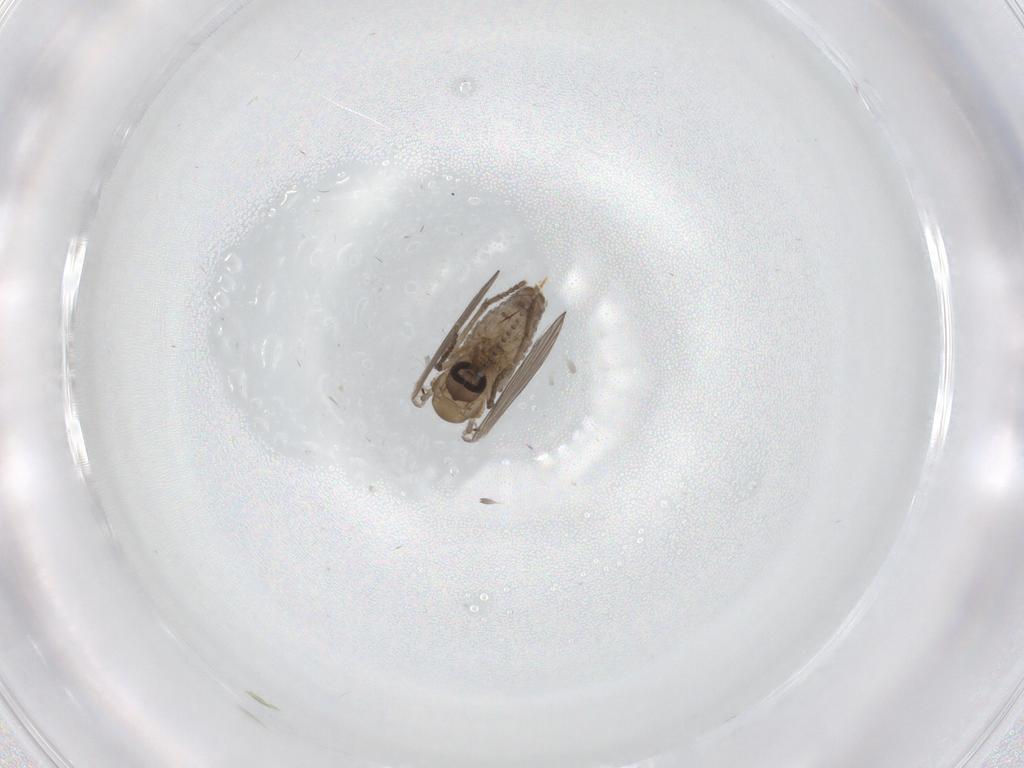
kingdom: Animalia
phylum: Arthropoda
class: Insecta
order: Diptera
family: Psychodidae
